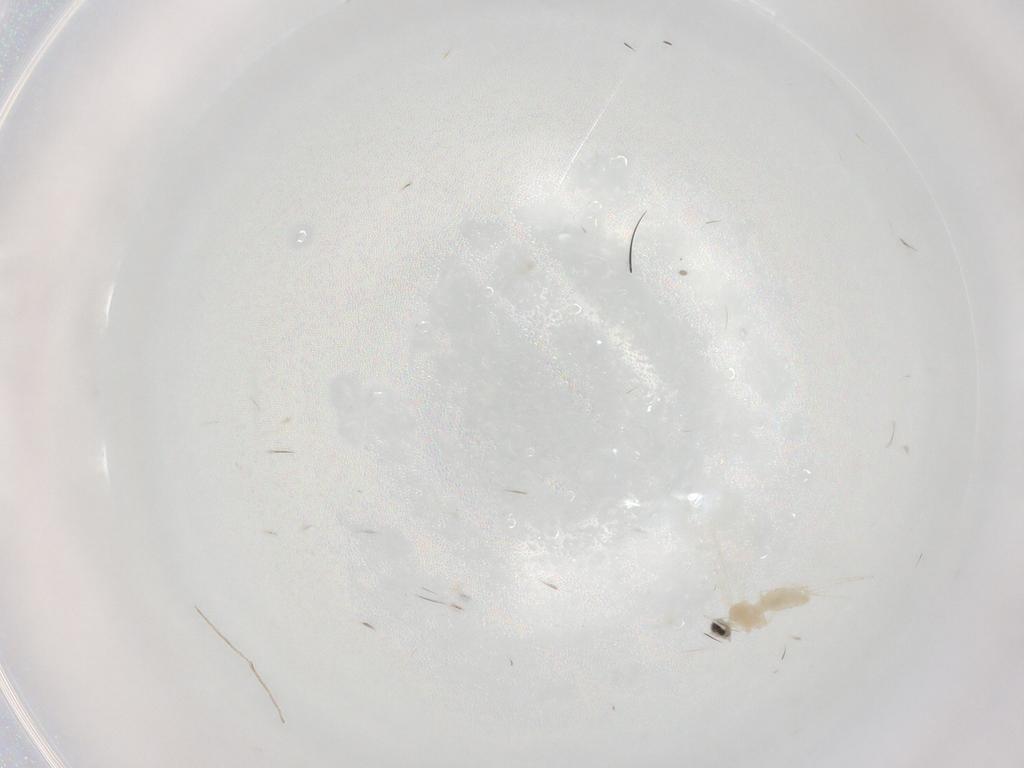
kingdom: Animalia
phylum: Arthropoda
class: Insecta
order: Diptera
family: Cecidomyiidae
